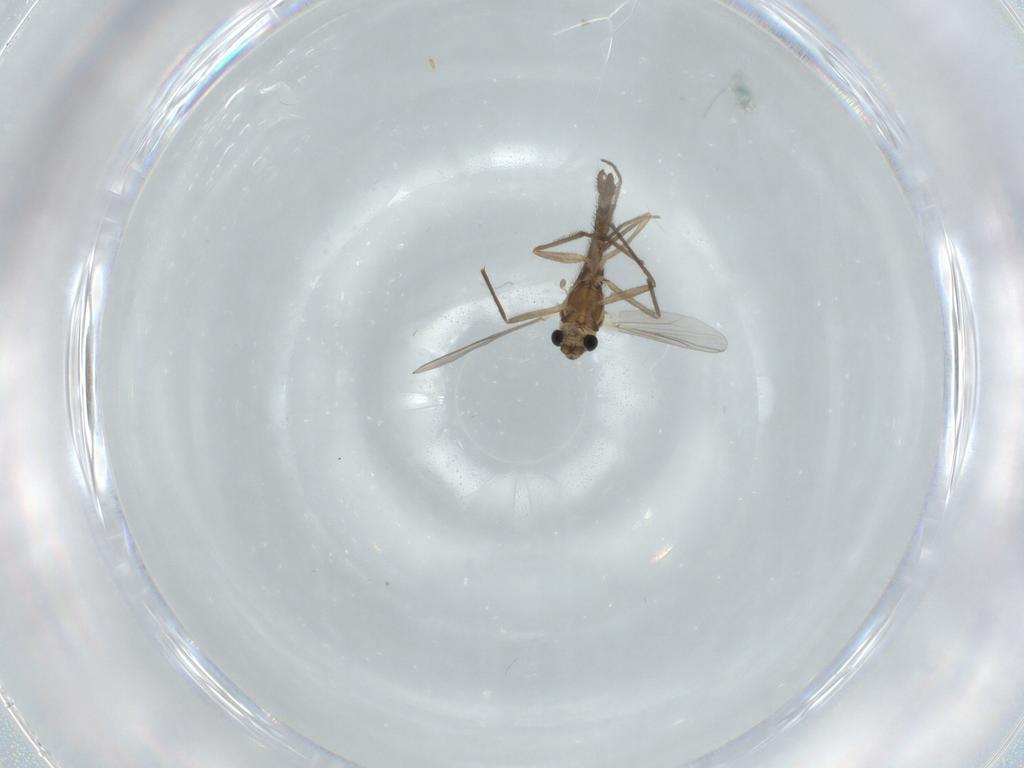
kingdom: Animalia
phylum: Arthropoda
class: Insecta
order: Diptera
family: Chironomidae
